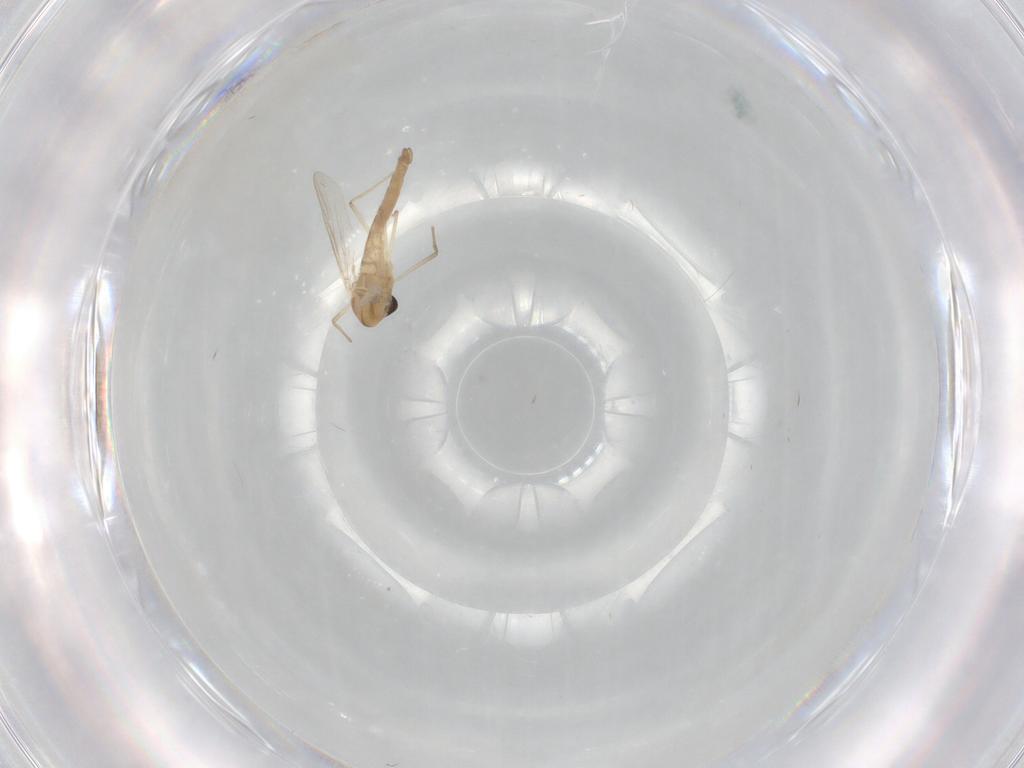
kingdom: Animalia
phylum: Arthropoda
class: Insecta
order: Diptera
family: Chironomidae
